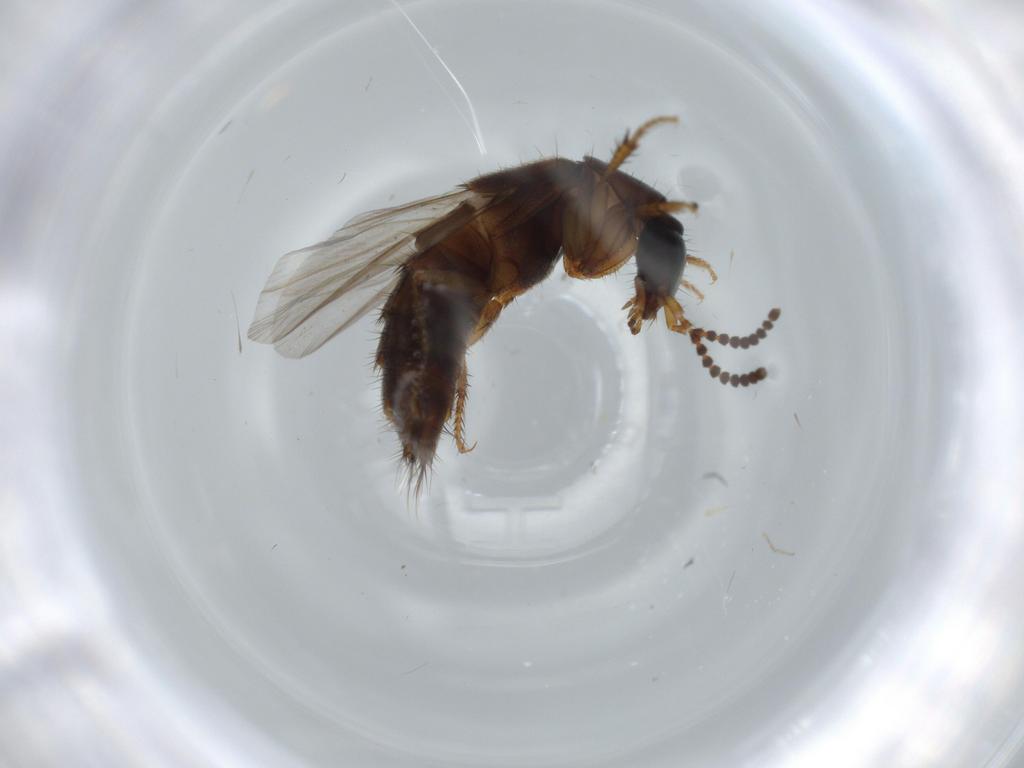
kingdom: Animalia
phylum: Arthropoda
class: Insecta
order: Coleoptera
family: Staphylinidae
